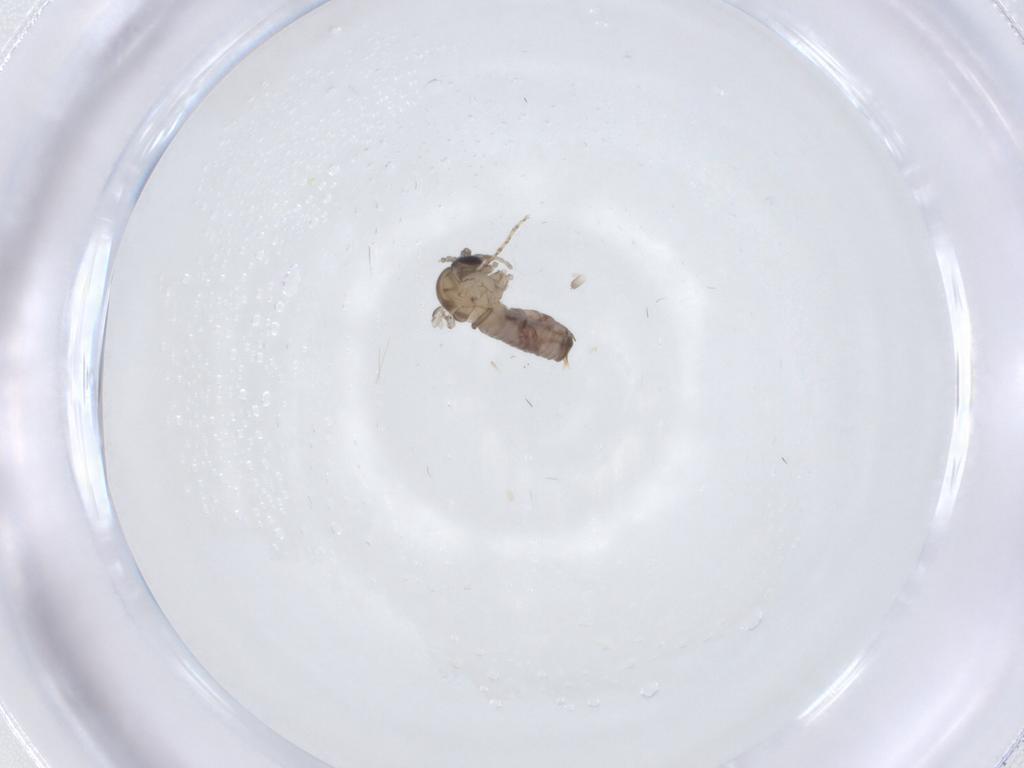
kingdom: Animalia
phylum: Arthropoda
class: Insecta
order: Diptera
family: Psychodidae
